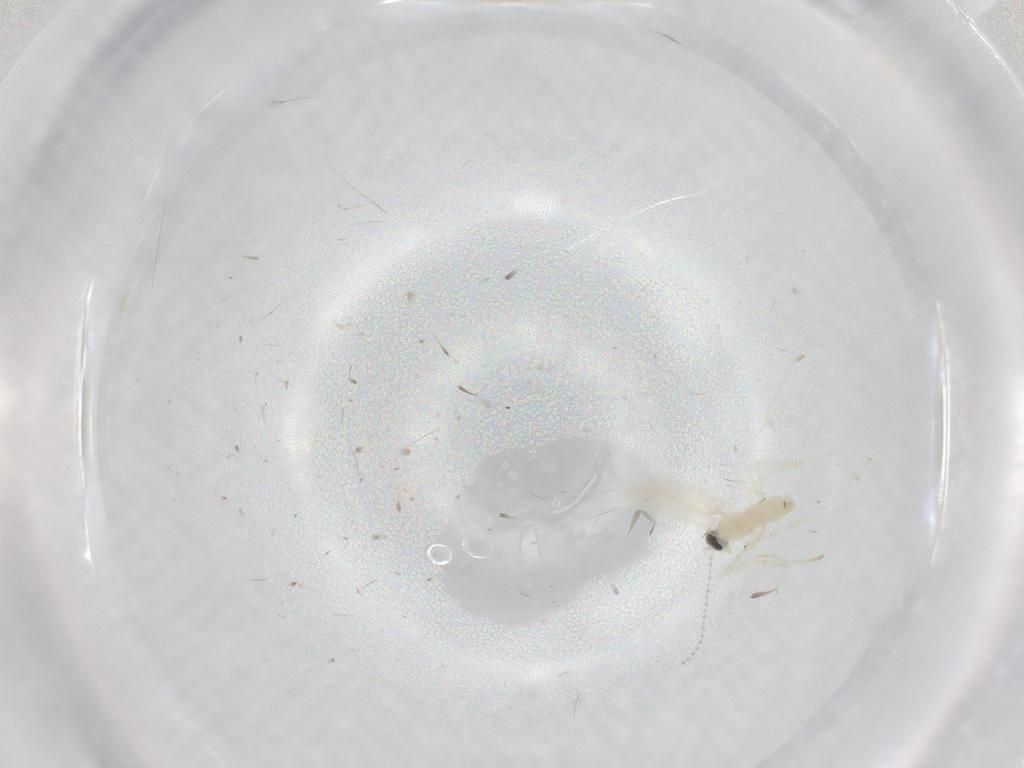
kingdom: Animalia
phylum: Arthropoda
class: Insecta
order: Diptera
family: Cecidomyiidae
